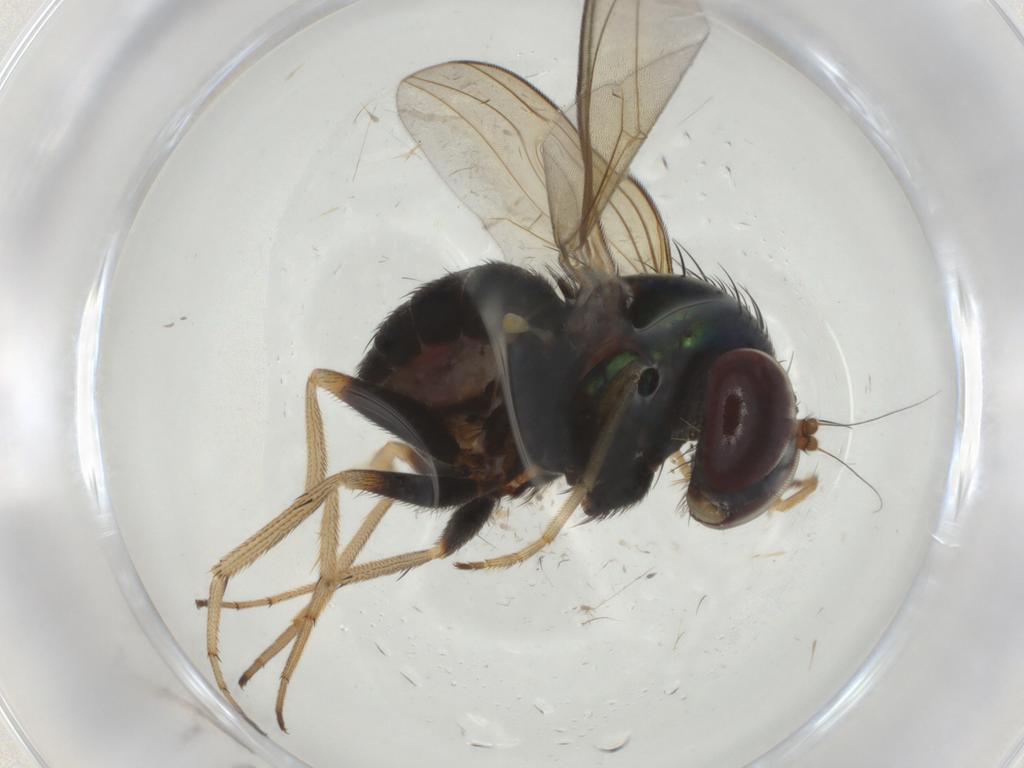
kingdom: Animalia
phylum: Arthropoda
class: Insecta
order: Diptera
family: Dolichopodidae
